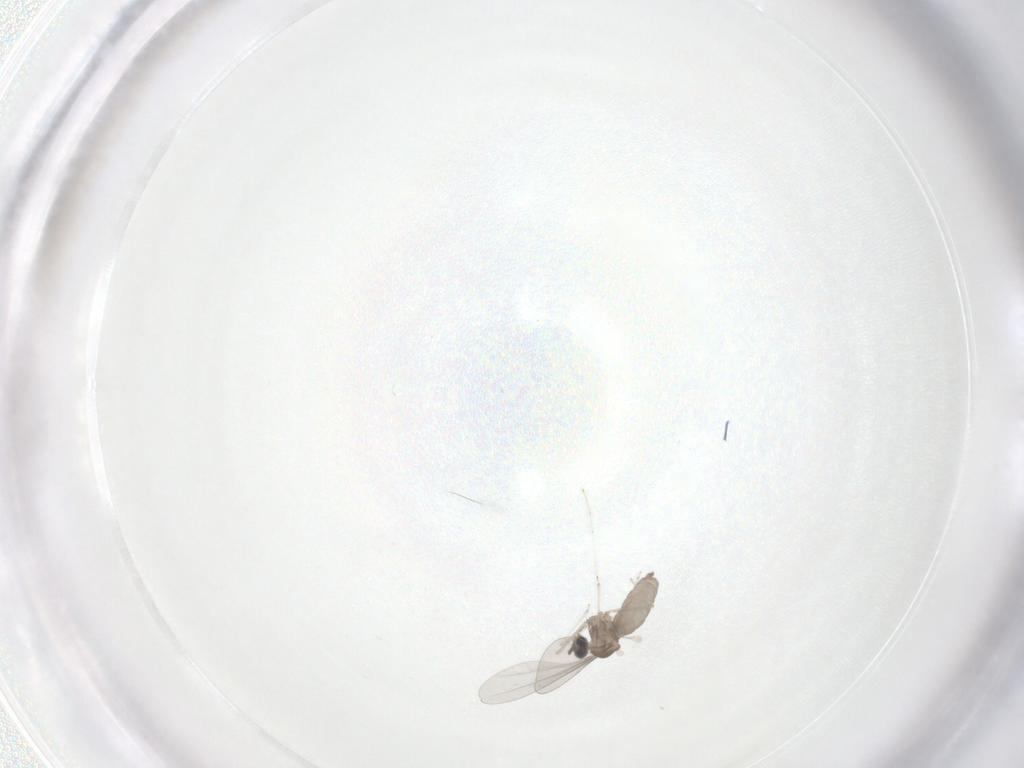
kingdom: Animalia
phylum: Arthropoda
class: Insecta
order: Diptera
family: Cecidomyiidae
